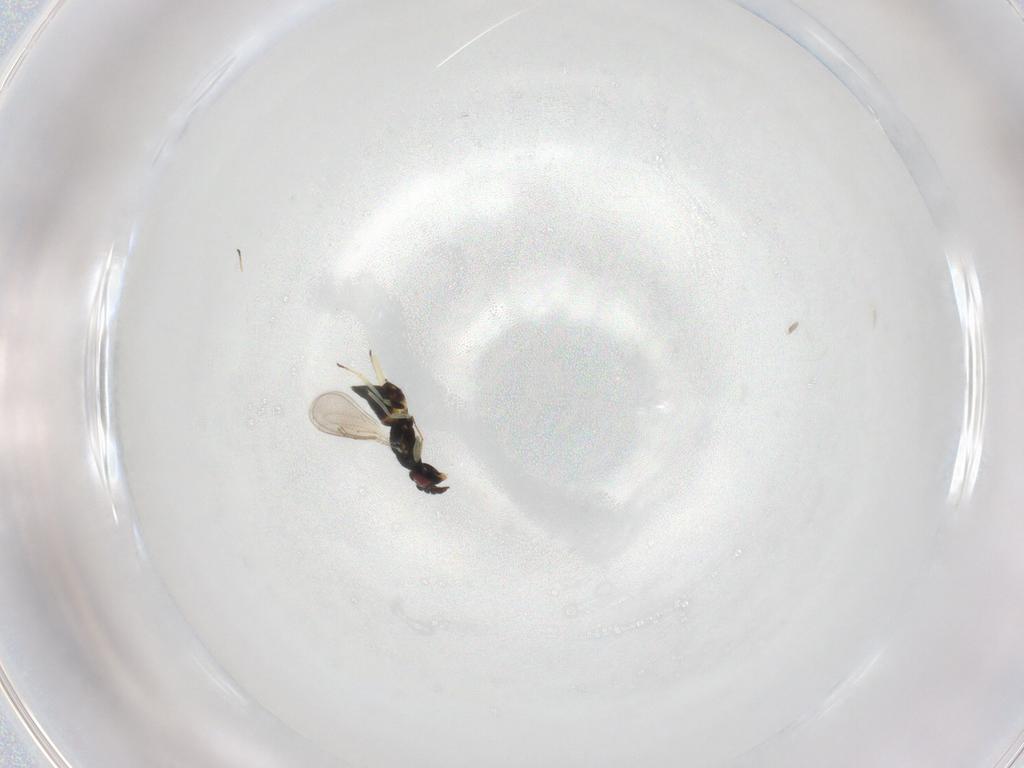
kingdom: Animalia
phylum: Arthropoda
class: Insecta
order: Hymenoptera
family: Eulophidae
